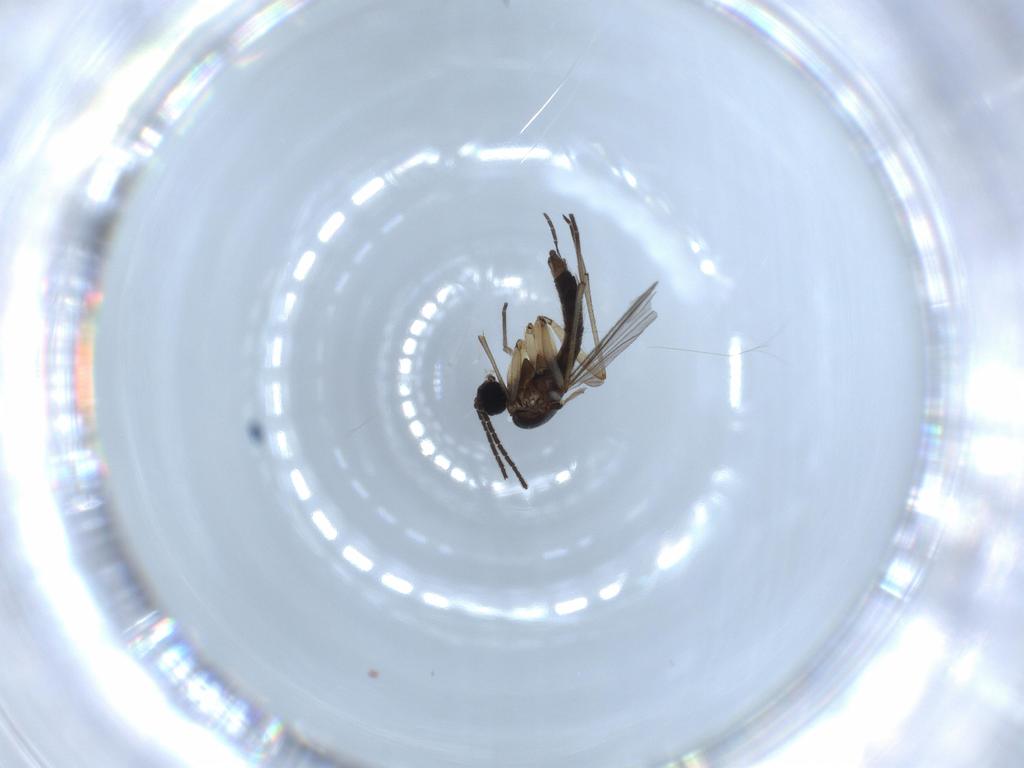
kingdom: Animalia
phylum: Arthropoda
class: Insecta
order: Diptera
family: Sciaridae
